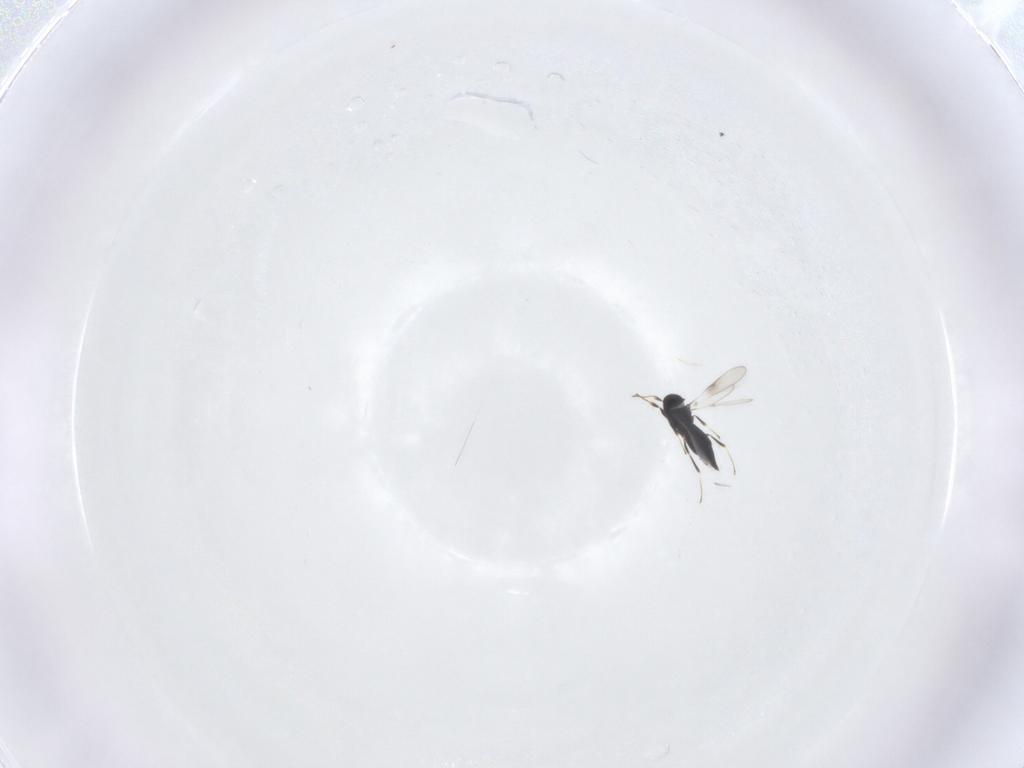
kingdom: Animalia
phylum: Arthropoda
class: Insecta
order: Hymenoptera
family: Scelionidae
